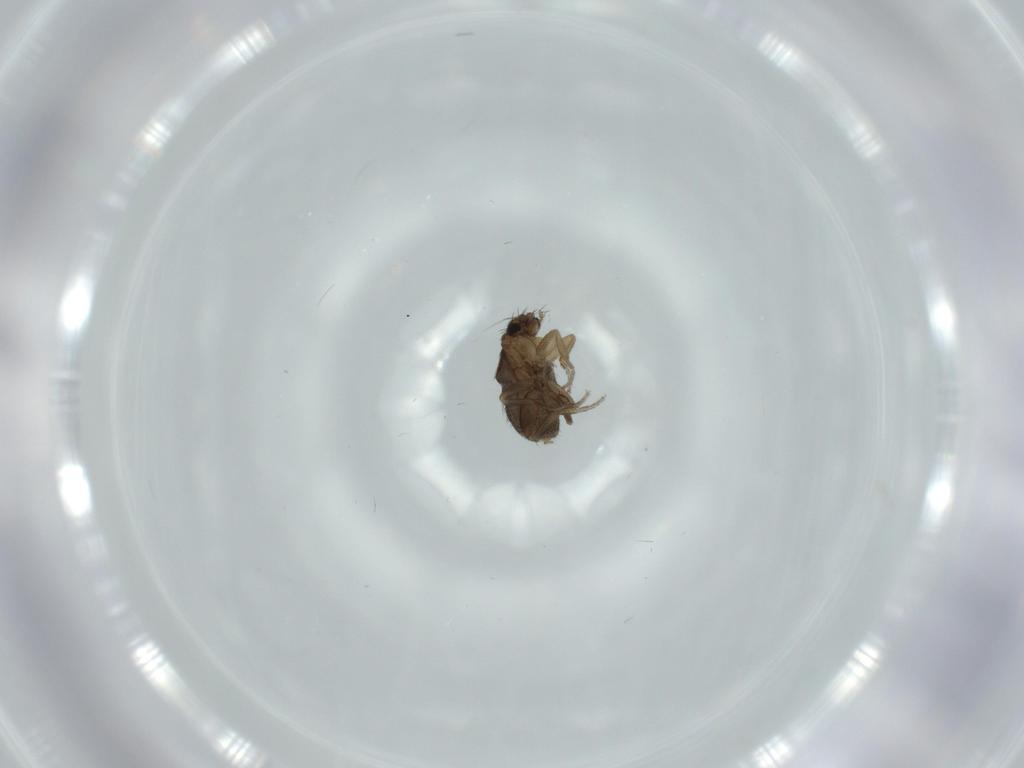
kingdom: Animalia
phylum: Arthropoda
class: Insecta
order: Diptera
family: Phoridae
